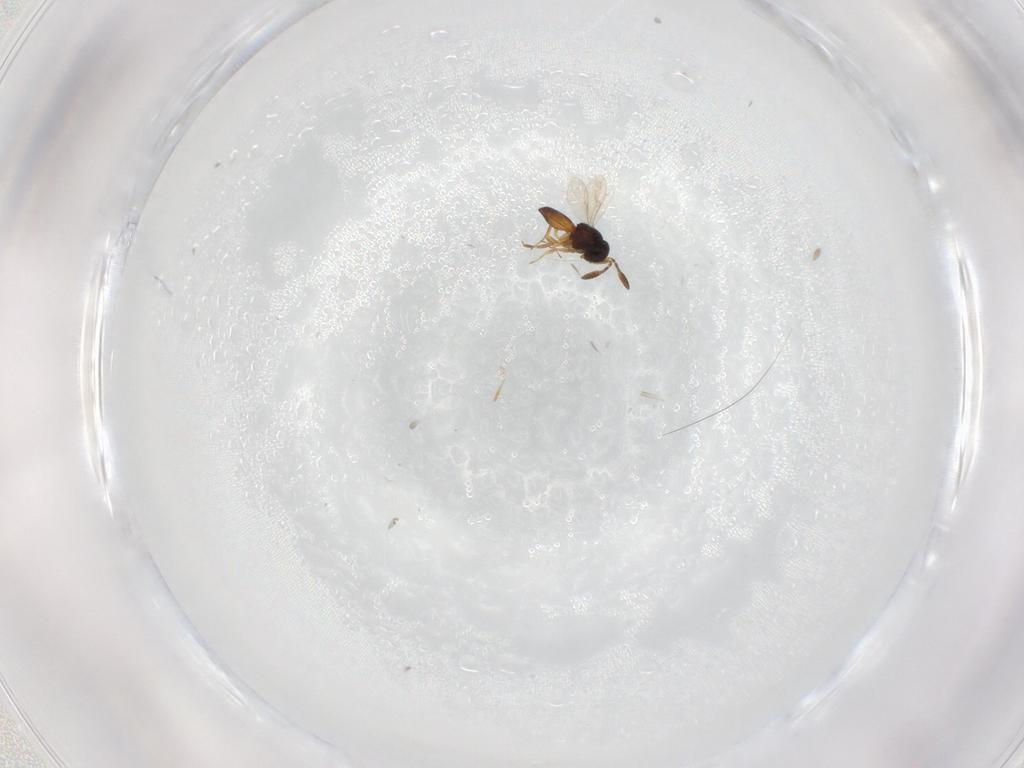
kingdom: Animalia
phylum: Arthropoda
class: Insecta
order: Hymenoptera
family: Scelionidae
